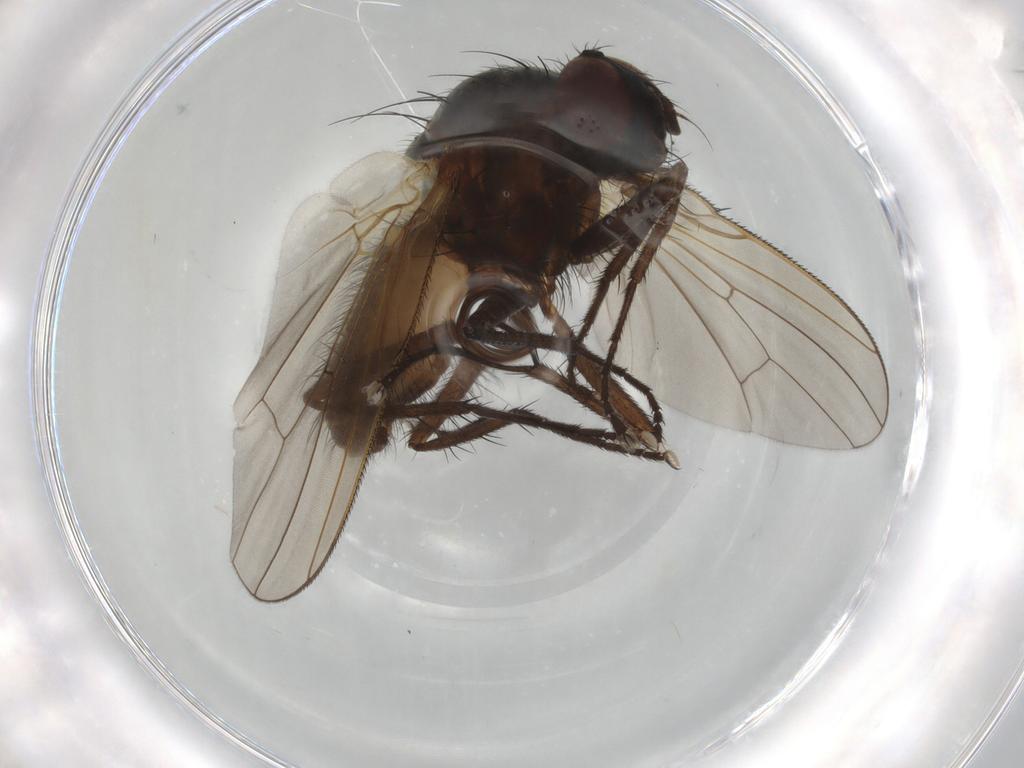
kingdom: Animalia
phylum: Arthropoda
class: Insecta
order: Diptera
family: Anthomyiidae
